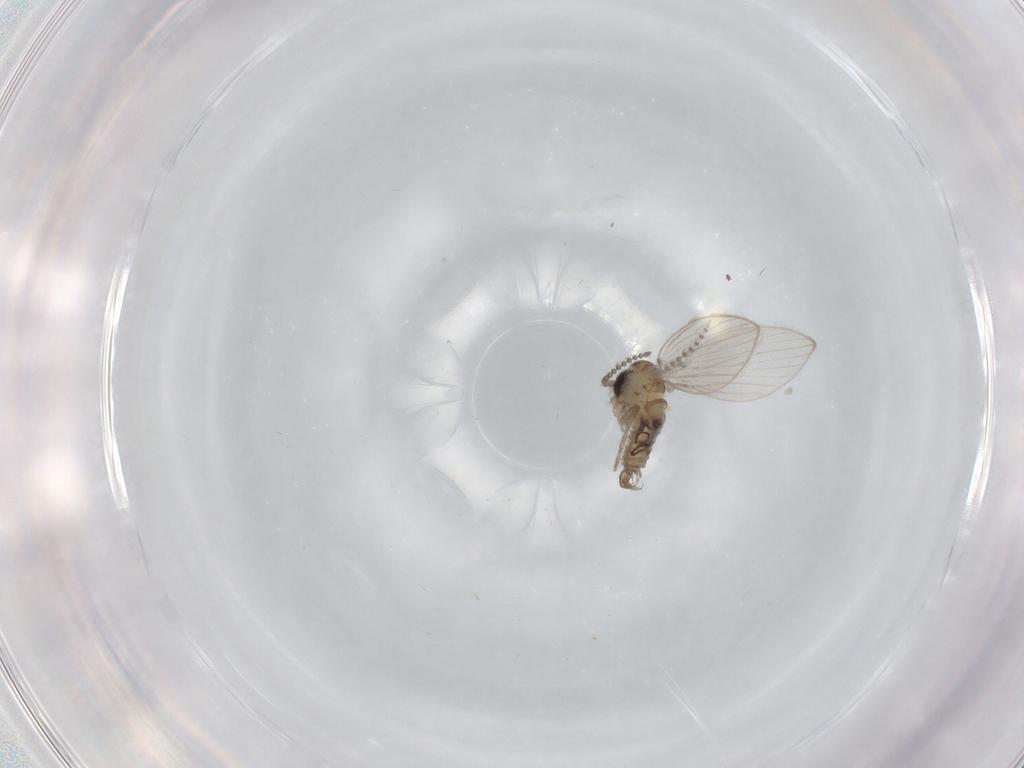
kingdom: Animalia
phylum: Arthropoda
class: Insecta
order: Diptera
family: Psychodidae
